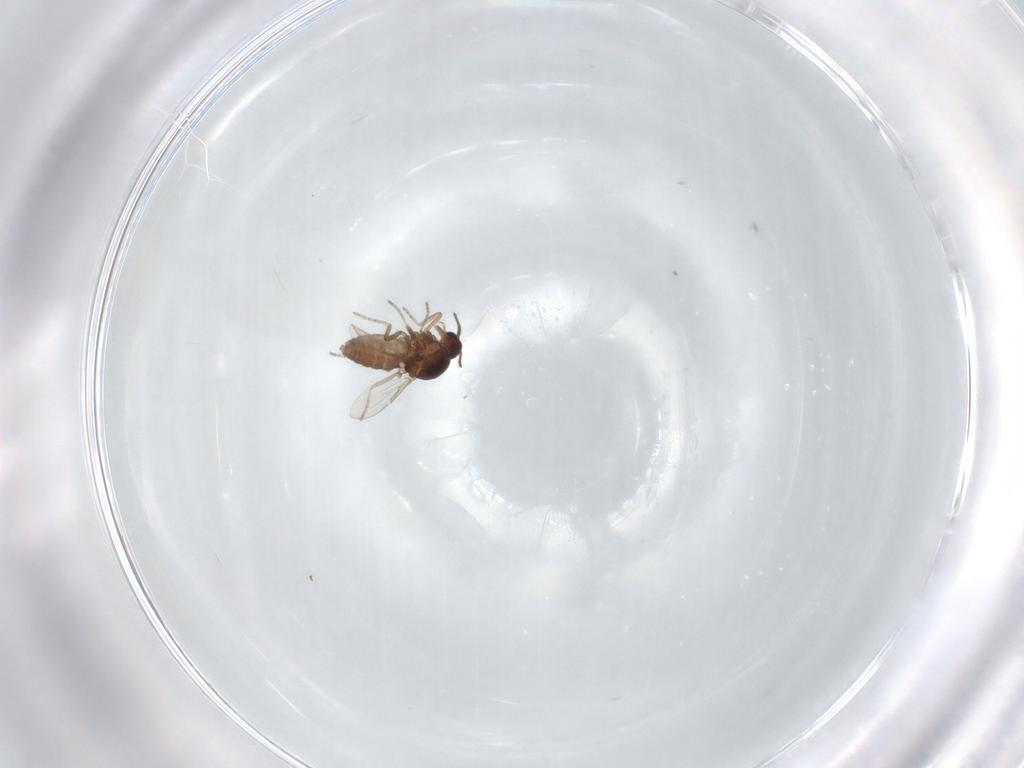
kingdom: Animalia
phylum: Arthropoda
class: Insecta
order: Diptera
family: Ceratopogonidae
